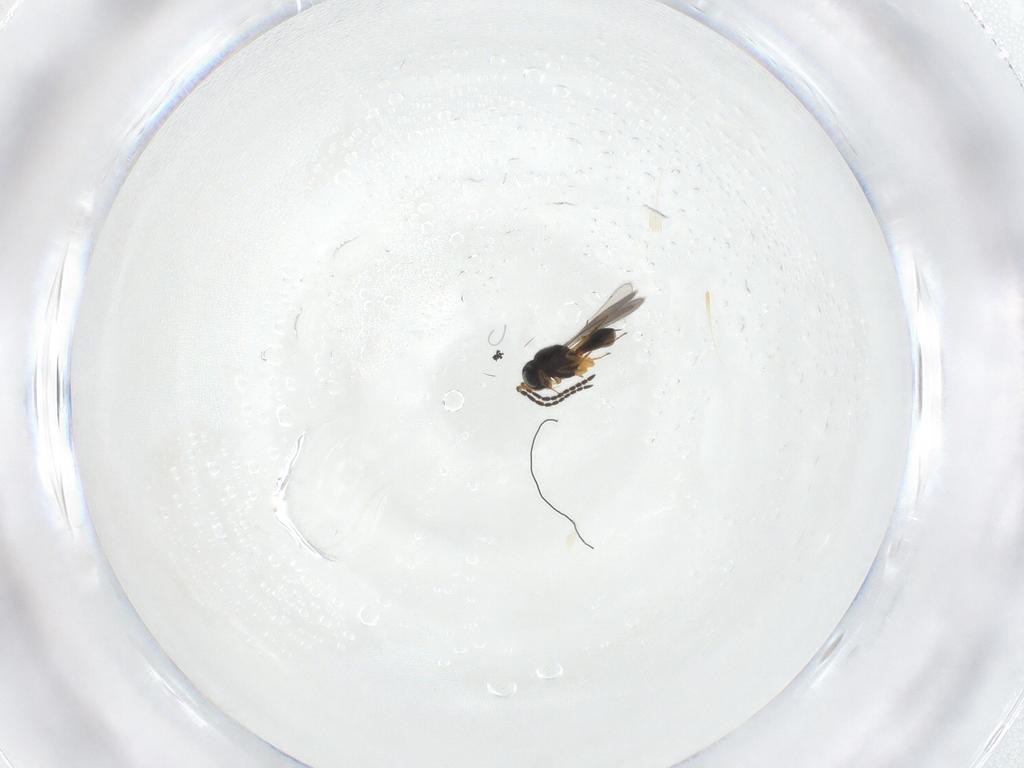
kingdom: Animalia
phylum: Arthropoda
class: Insecta
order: Hymenoptera
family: Scelionidae
